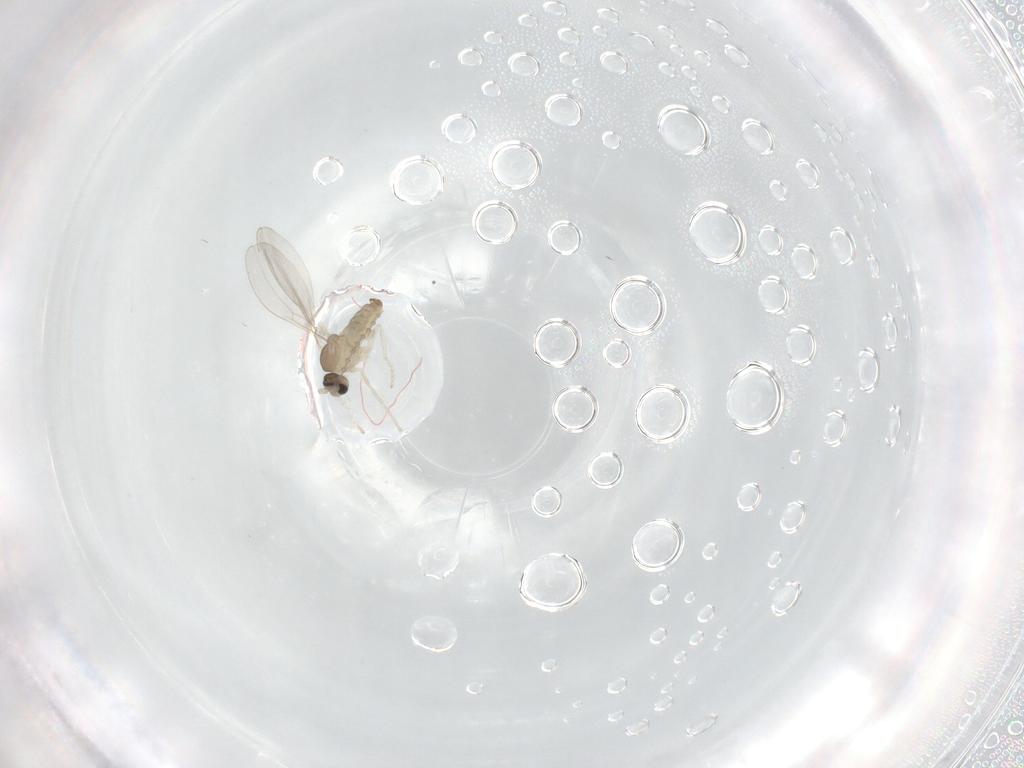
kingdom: Animalia
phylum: Arthropoda
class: Insecta
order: Diptera
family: Cecidomyiidae
